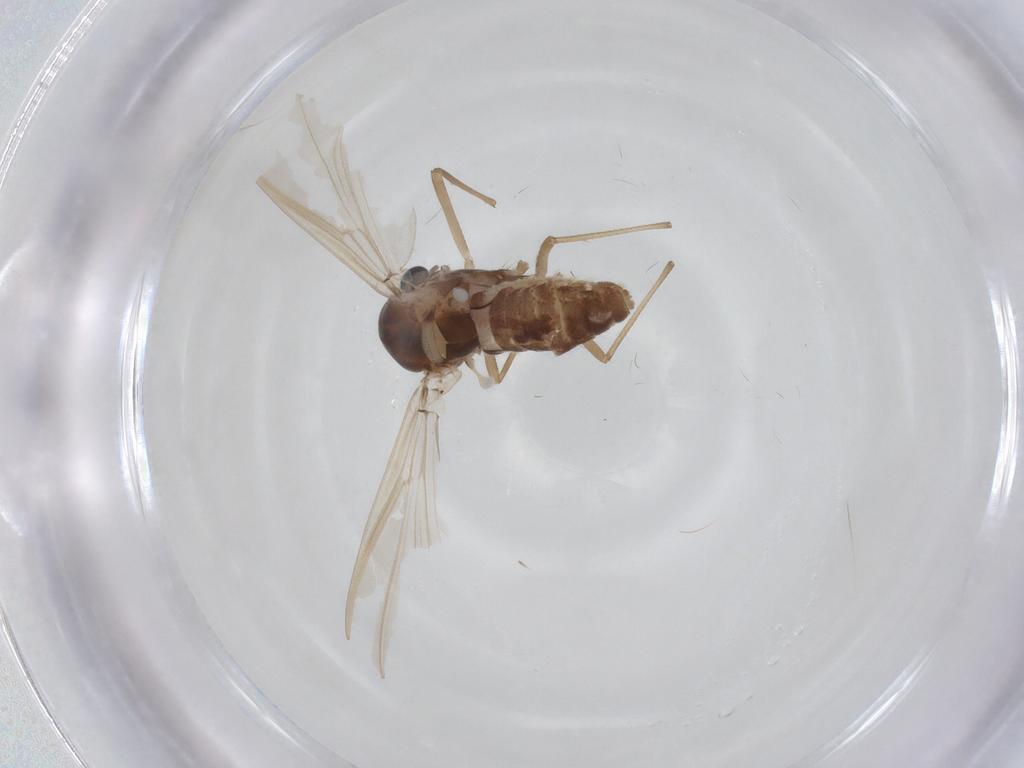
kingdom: Animalia
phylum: Arthropoda
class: Insecta
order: Diptera
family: Chironomidae
